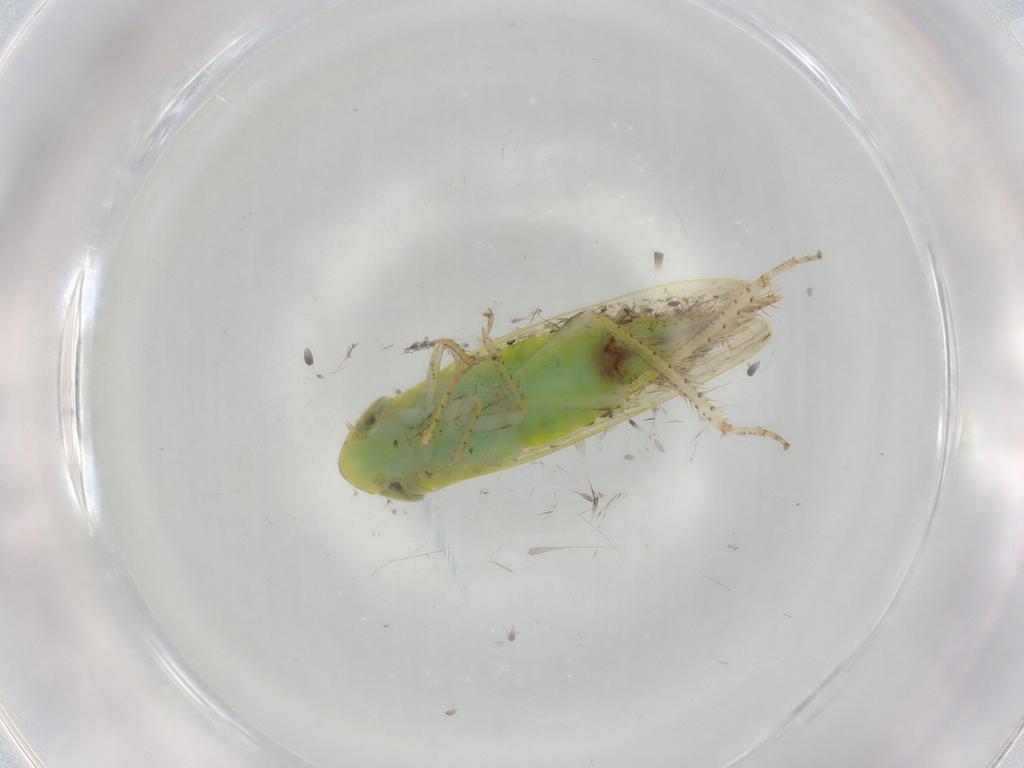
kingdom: Animalia
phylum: Arthropoda
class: Insecta
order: Hemiptera
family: Cicadellidae
